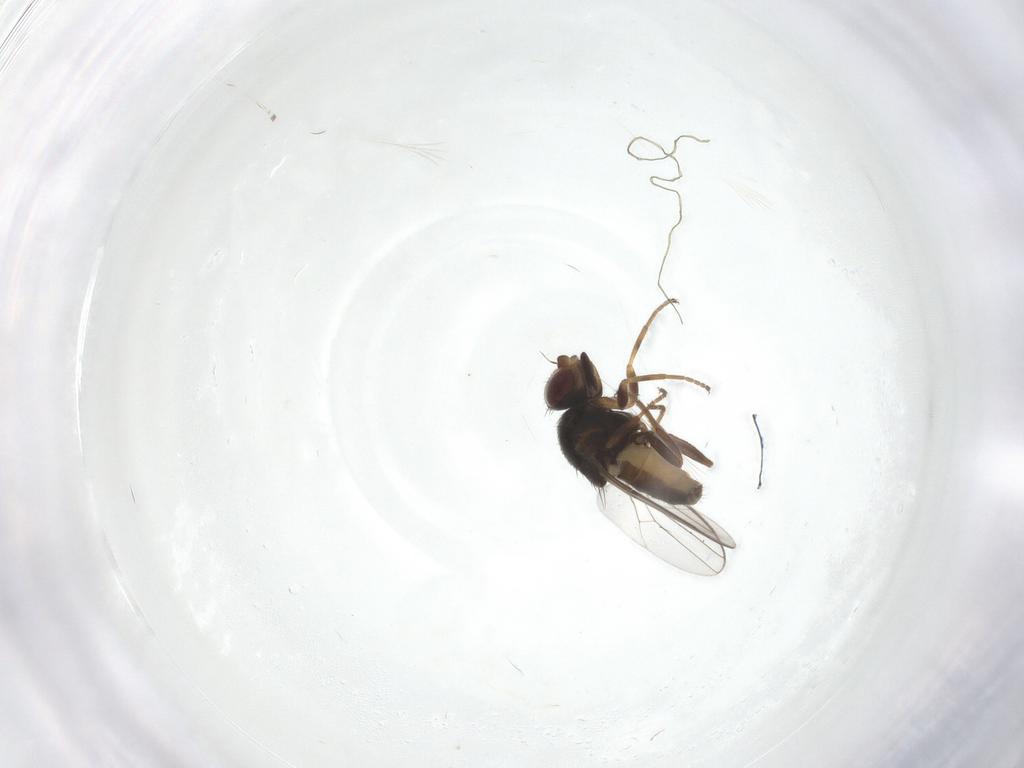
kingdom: Animalia
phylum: Arthropoda
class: Insecta
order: Diptera
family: Chloropidae
